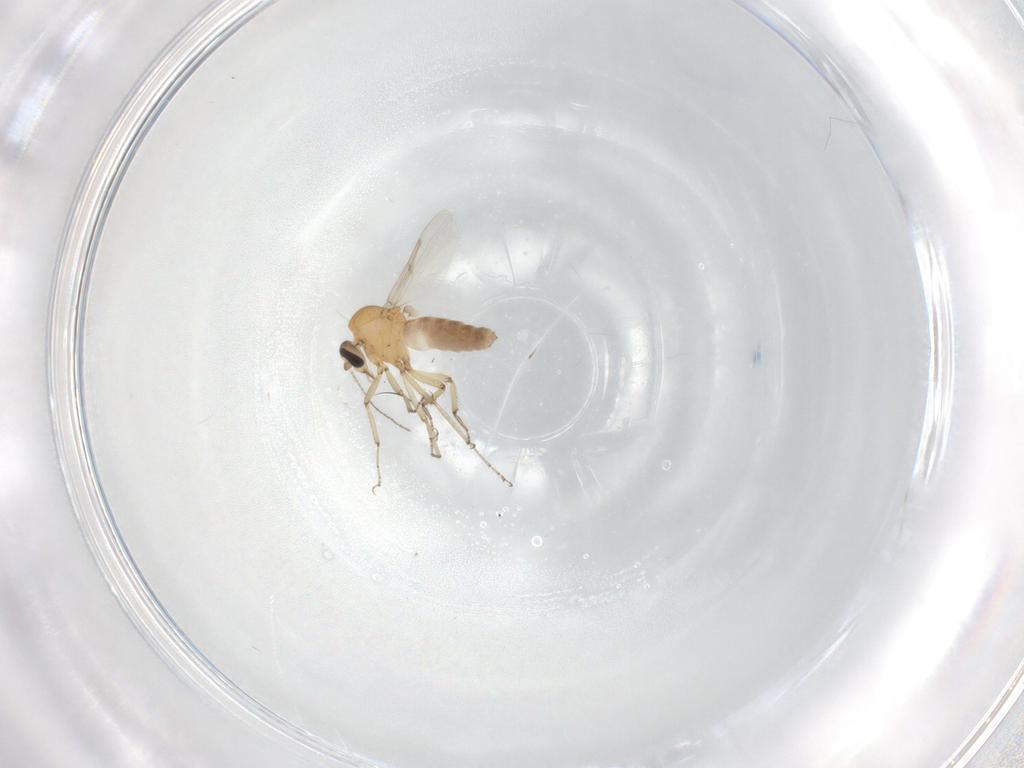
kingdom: Animalia
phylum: Arthropoda
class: Insecta
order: Diptera
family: Ceratopogonidae
